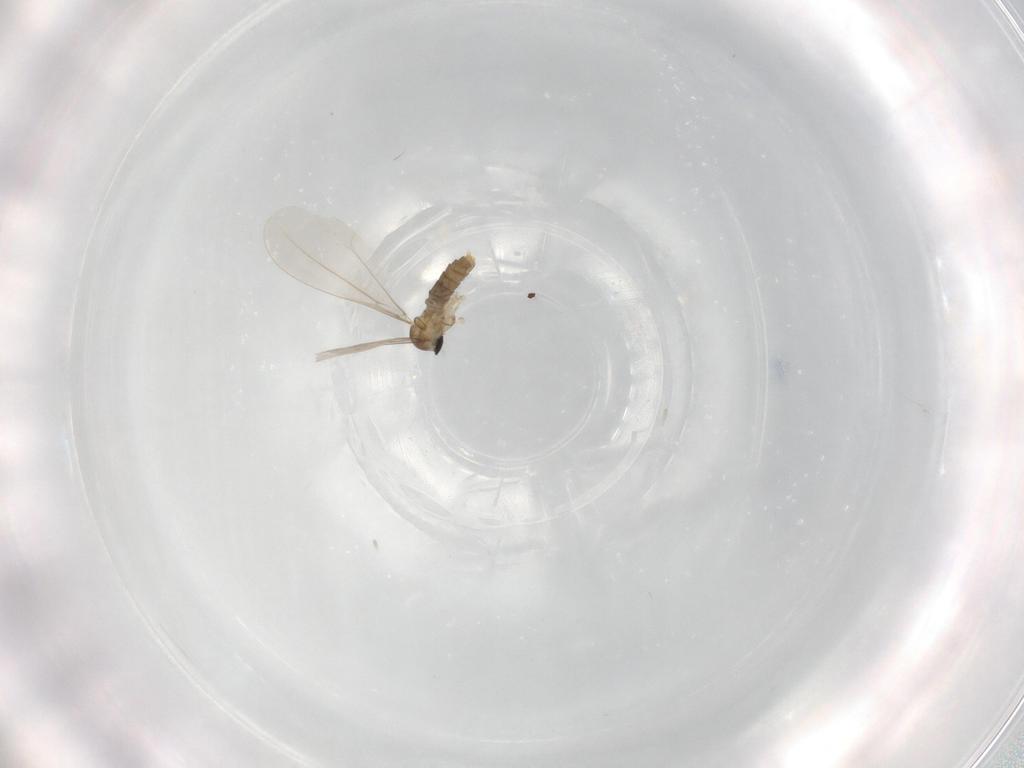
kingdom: Animalia
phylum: Arthropoda
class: Insecta
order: Diptera
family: Cecidomyiidae
